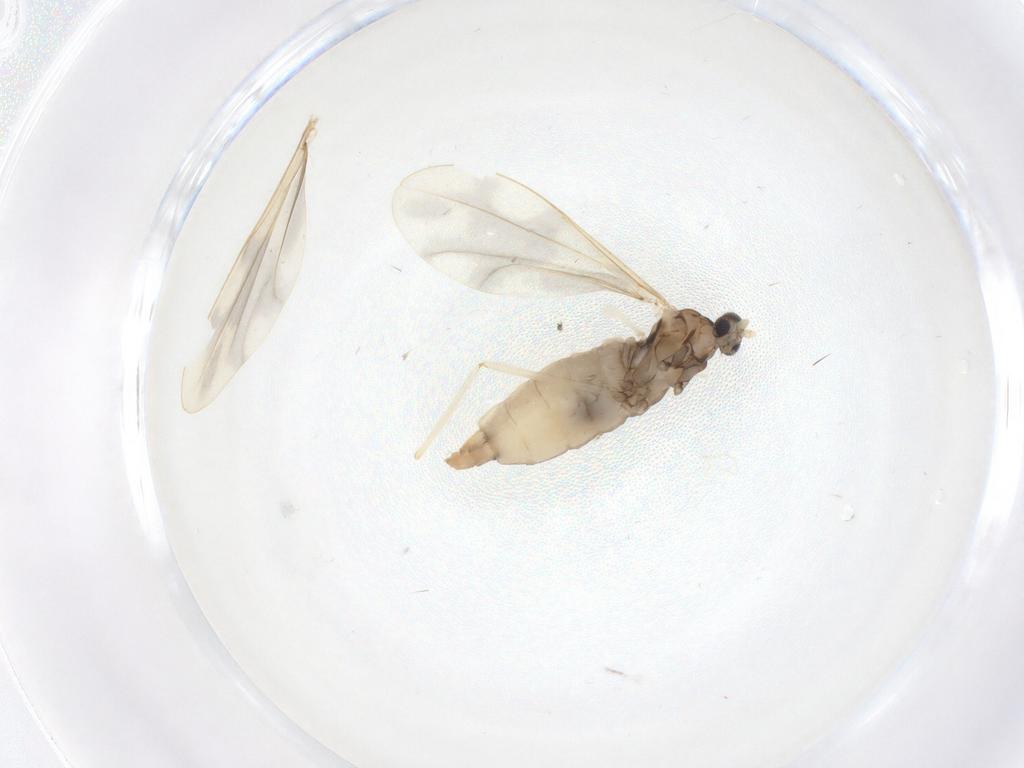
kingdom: Animalia
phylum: Arthropoda
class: Insecta
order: Diptera
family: Cecidomyiidae
